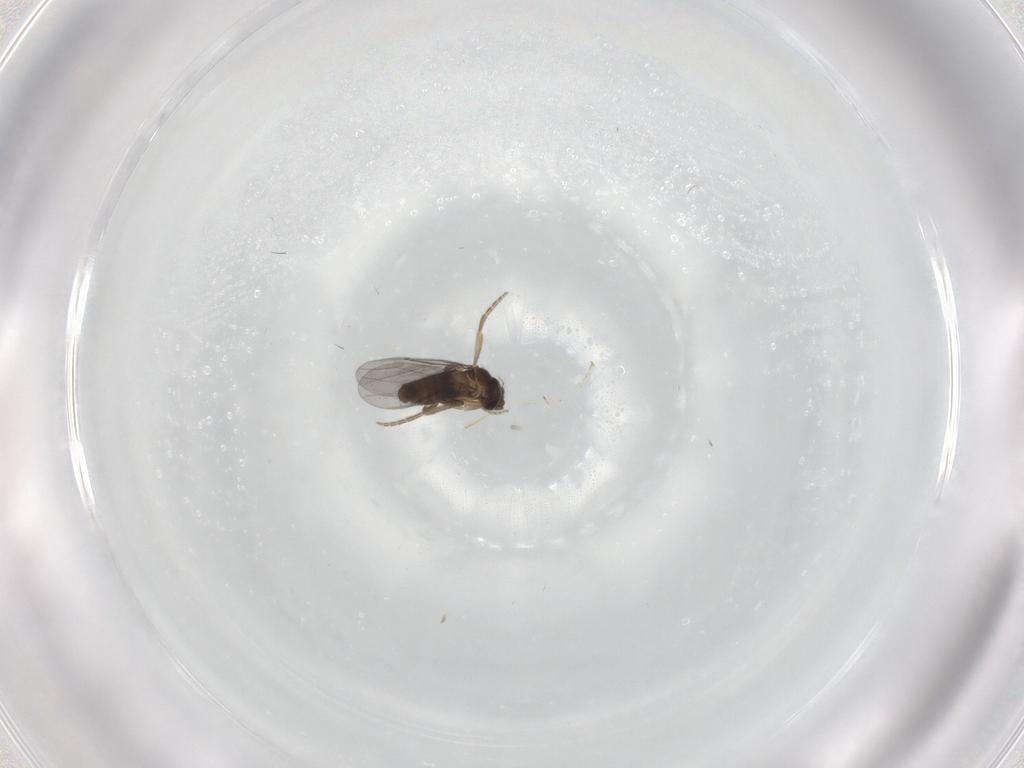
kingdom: Animalia
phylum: Arthropoda
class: Insecta
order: Diptera
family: Cecidomyiidae
